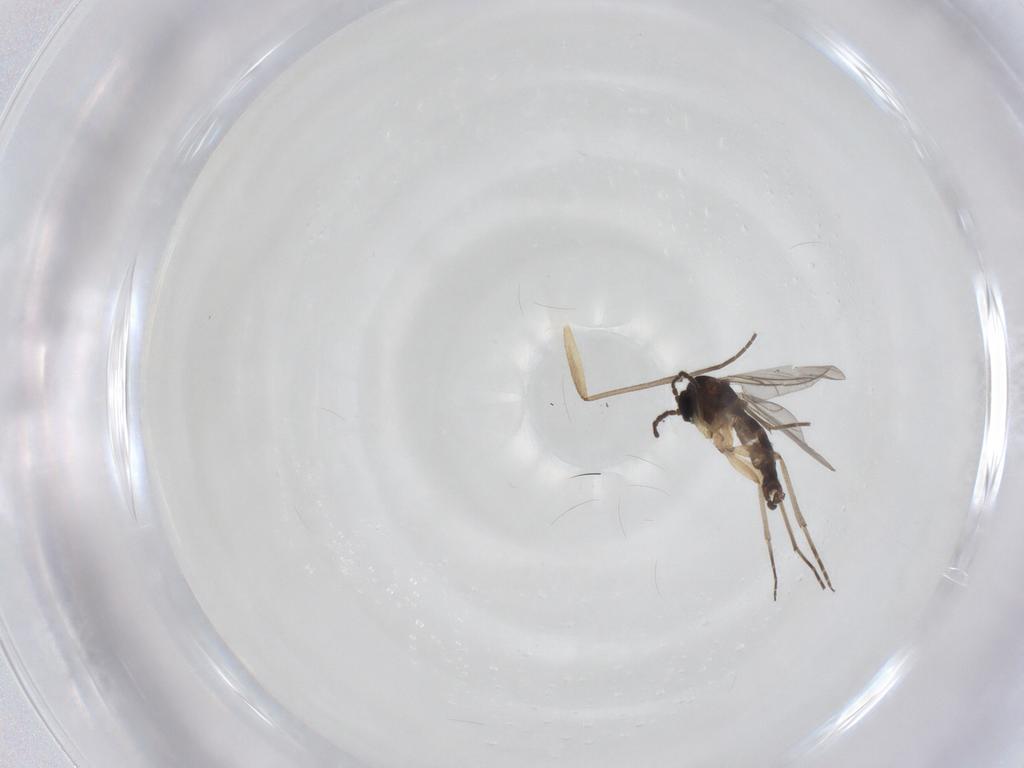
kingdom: Animalia
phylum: Arthropoda
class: Insecta
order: Diptera
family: Sciaridae
